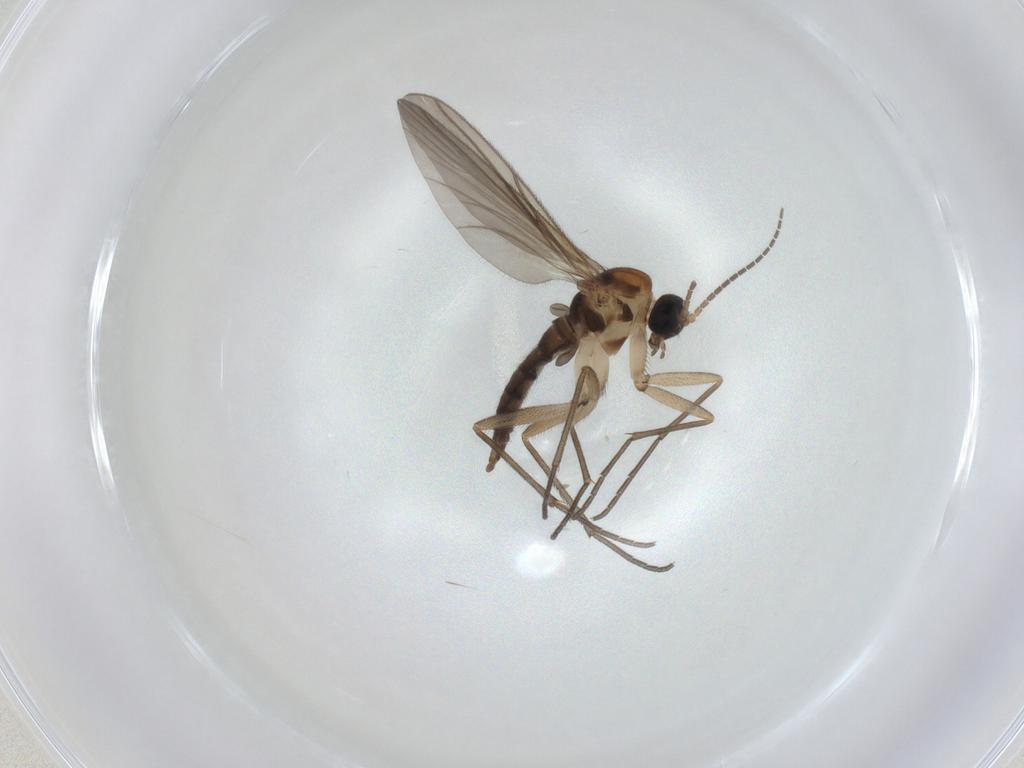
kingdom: Animalia
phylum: Arthropoda
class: Insecta
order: Diptera
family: Sciaridae
